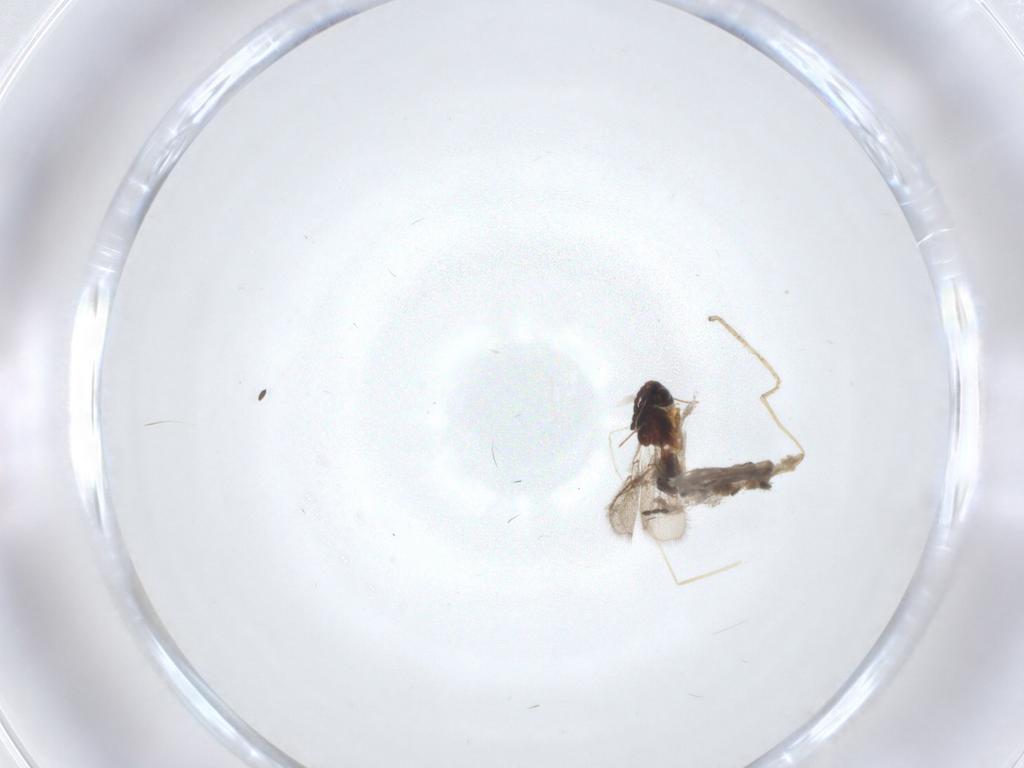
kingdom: Animalia
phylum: Arthropoda
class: Insecta
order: Diptera
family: Cecidomyiidae
